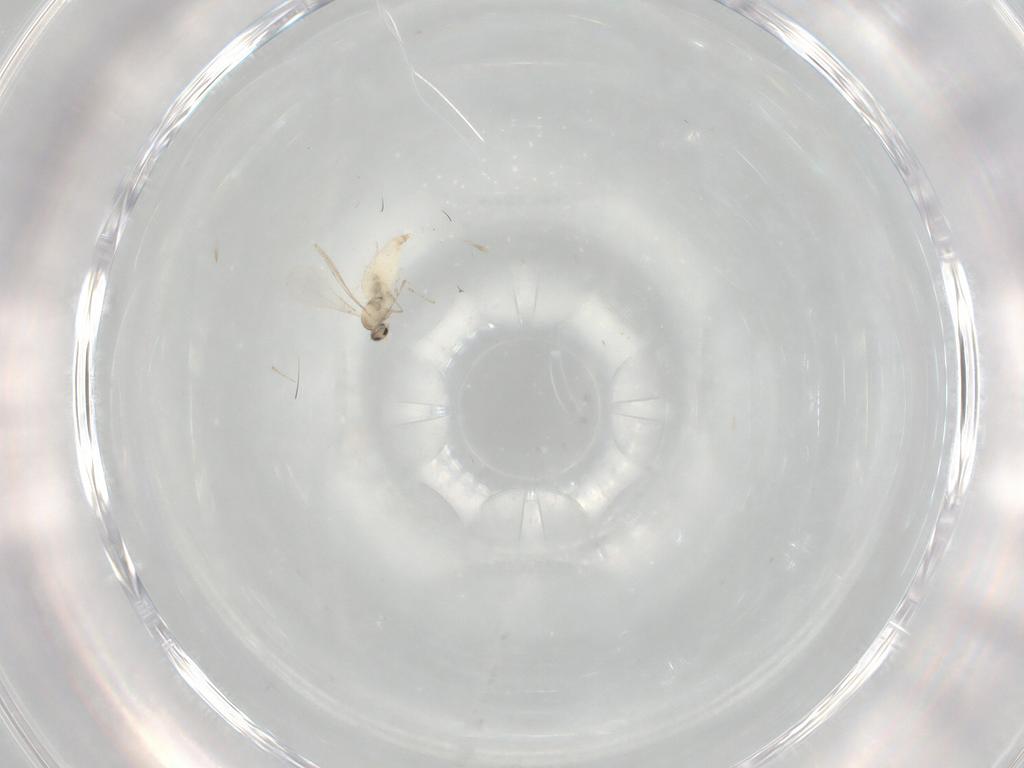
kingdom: Animalia
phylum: Arthropoda
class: Insecta
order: Diptera
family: Cecidomyiidae
